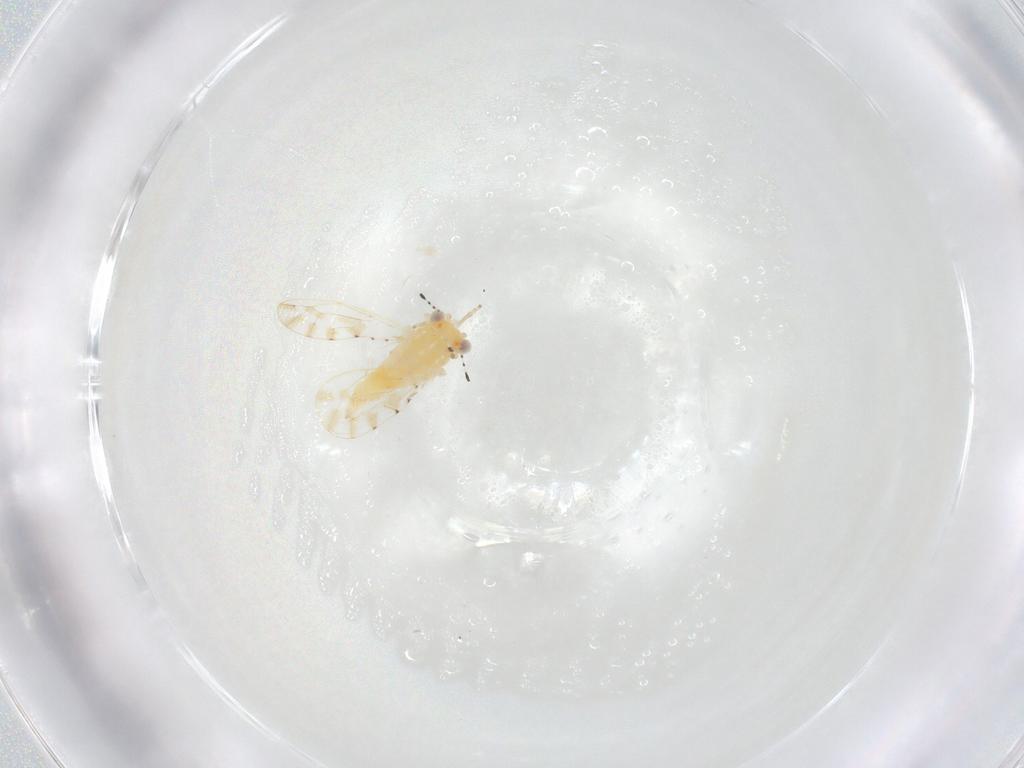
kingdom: Animalia
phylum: Arthropoda
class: Insecta
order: Hemiptera
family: Aphalaridae
